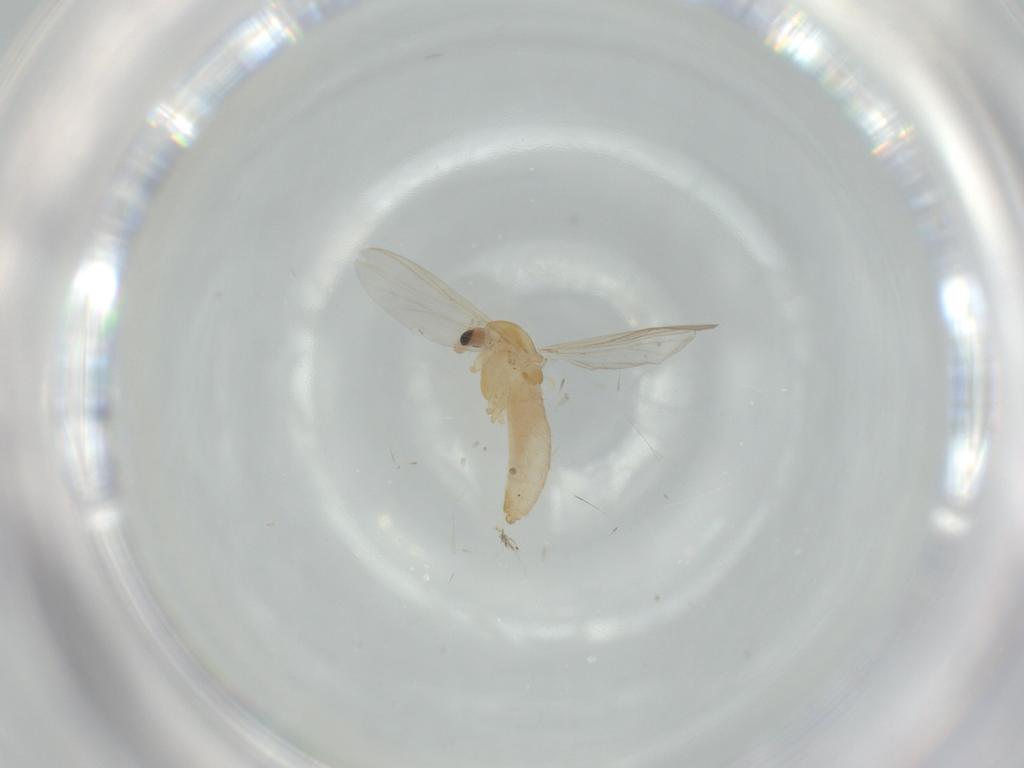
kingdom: Animalia
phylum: Arthropoda
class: Insecta
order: Diptera
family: Chironomidae
